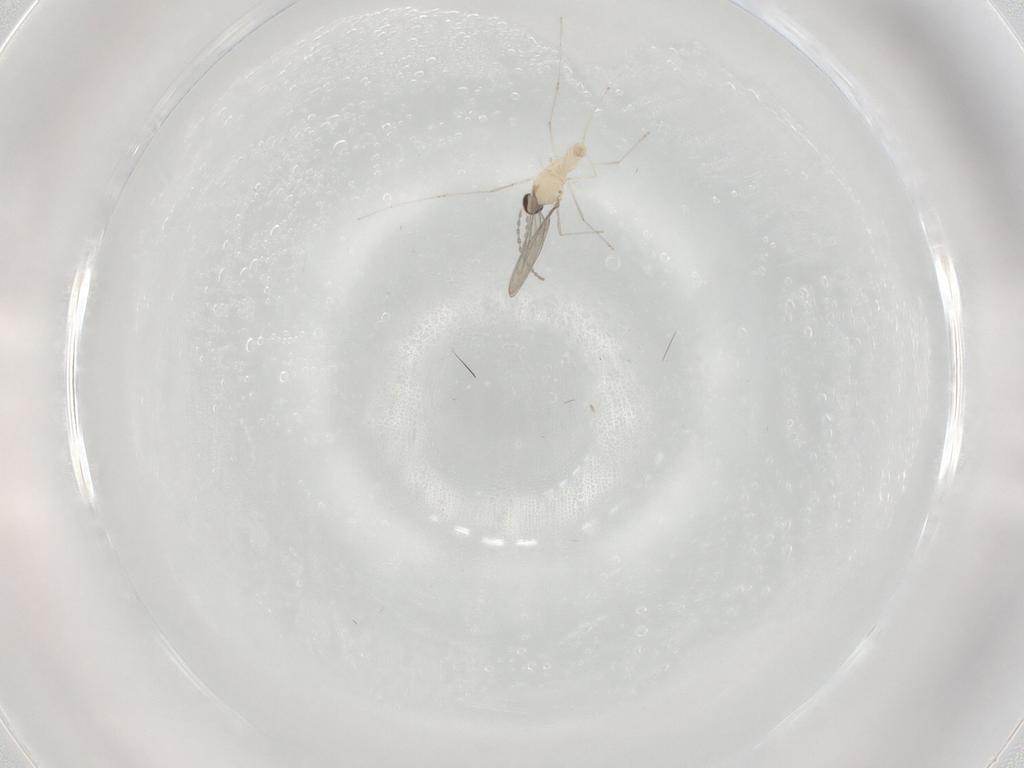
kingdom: Animalia
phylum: Arthropoda
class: Insecta
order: Diptera
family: Cecidomyiidae
